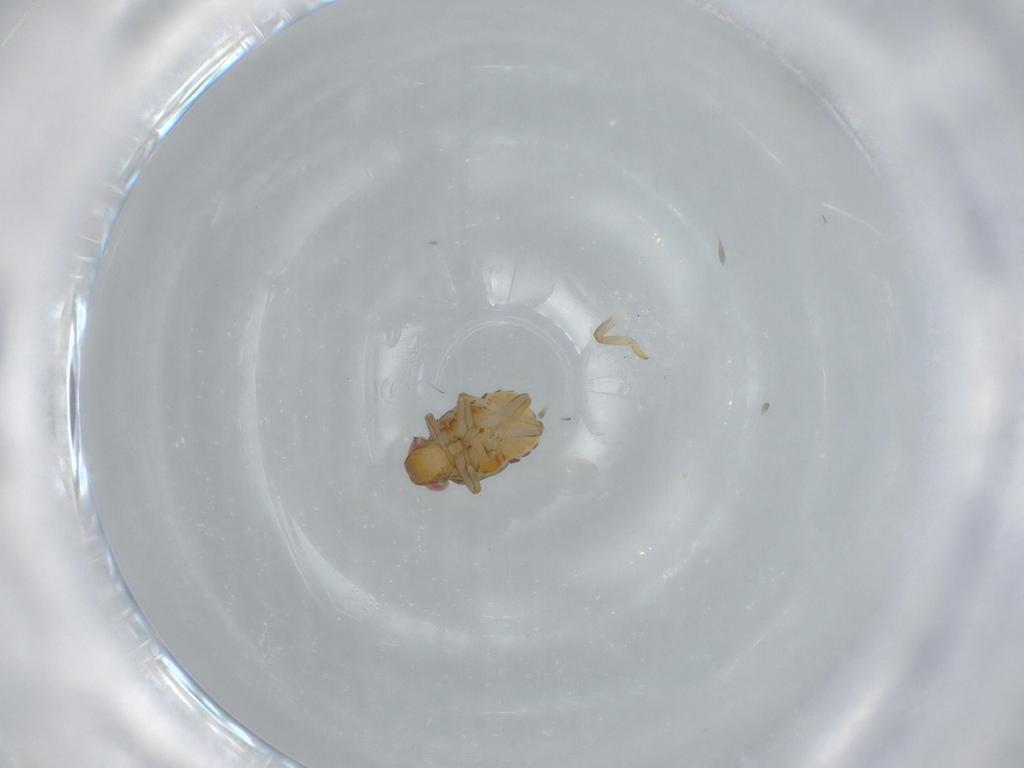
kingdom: Animalia
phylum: Arthropoda
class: Insecta
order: Hemiptera
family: Issidae
